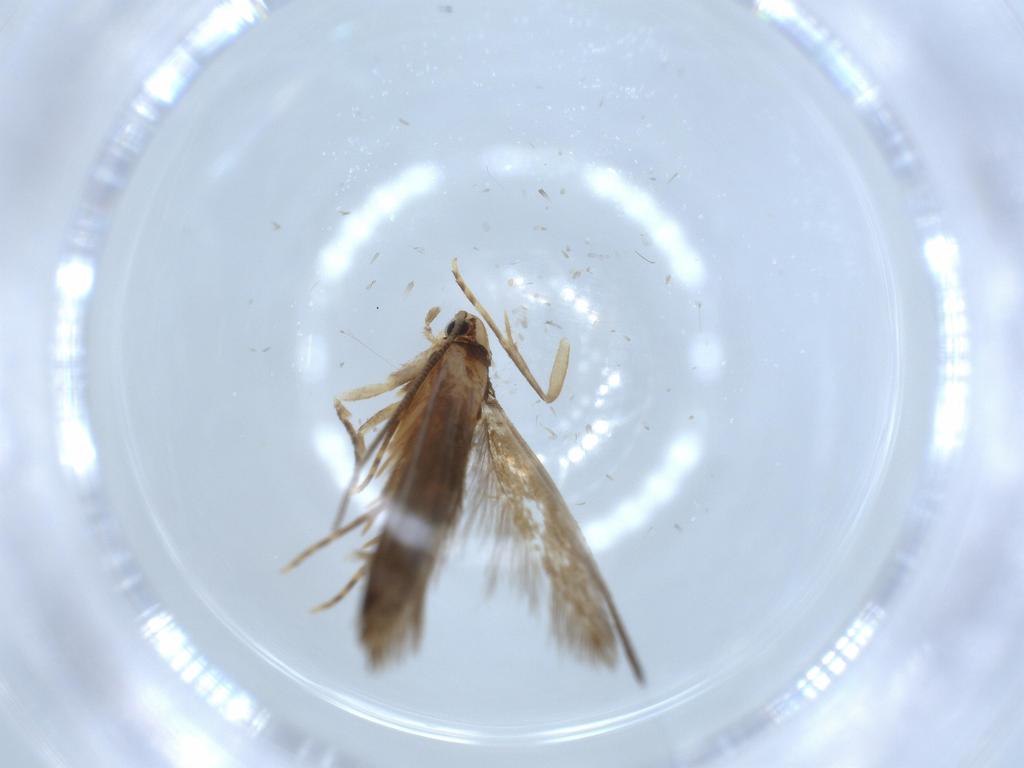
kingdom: Animalia
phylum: Arthropoda
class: Insecta
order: Lepidoptera
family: Tineidae
